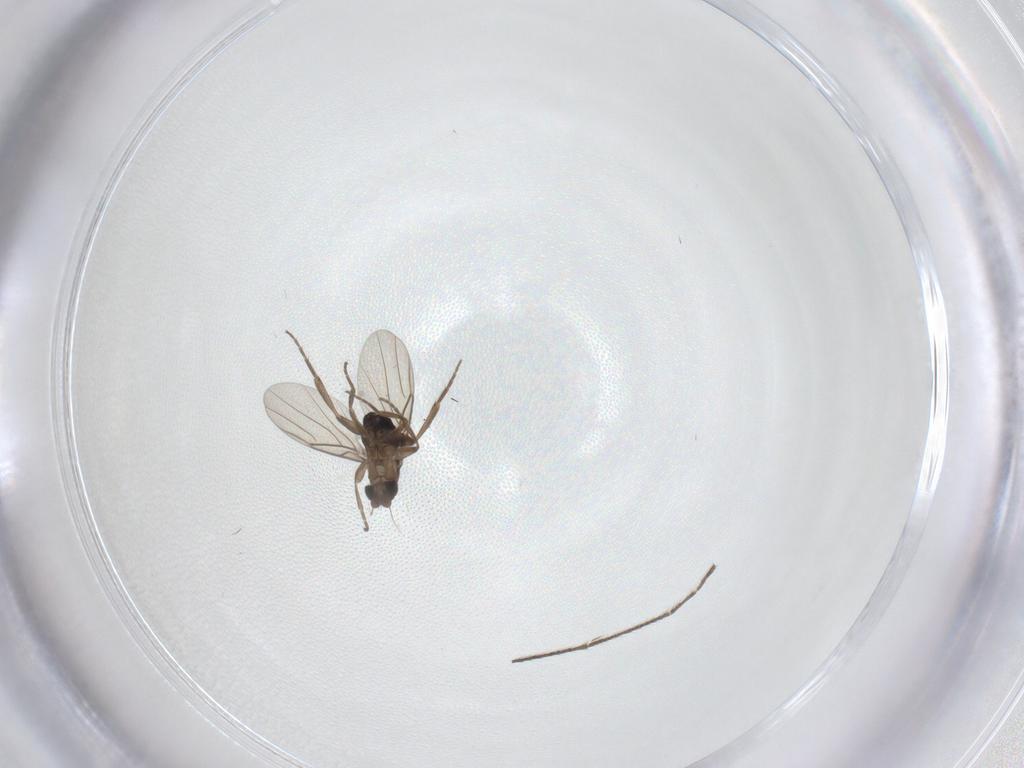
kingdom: Animalia
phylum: Arthropoda
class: Insecta
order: Diptera
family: Phoridae
